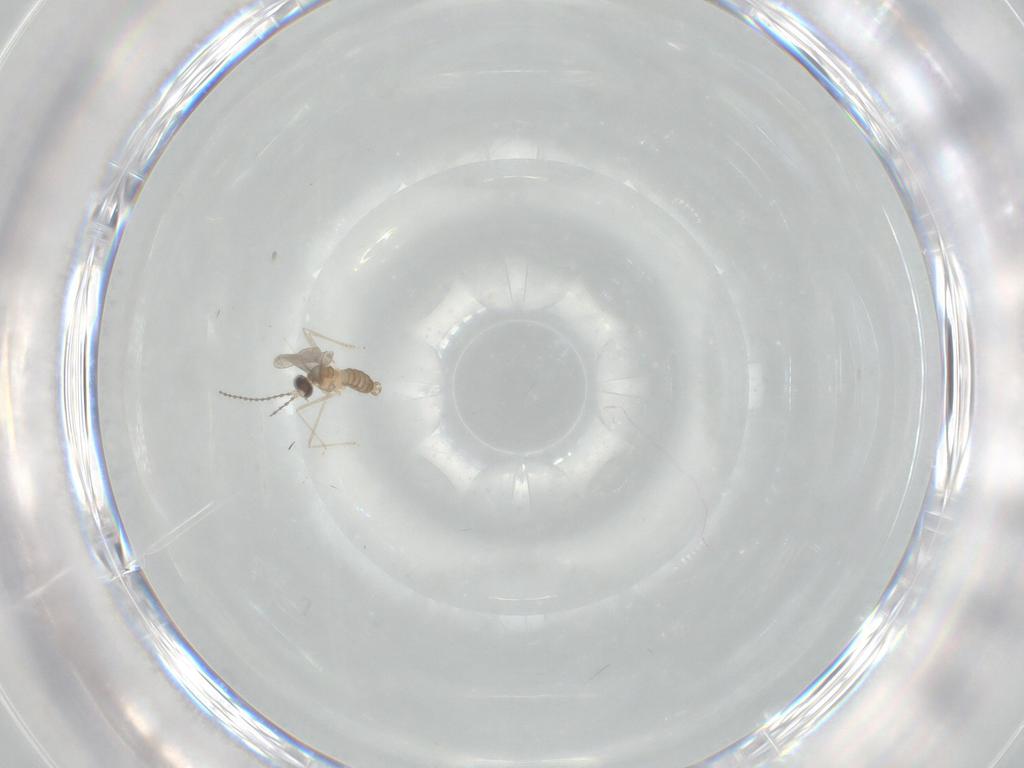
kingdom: Animalia
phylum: Arthropoda
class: Insecta
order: Diptera
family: Cecidomyiidae
